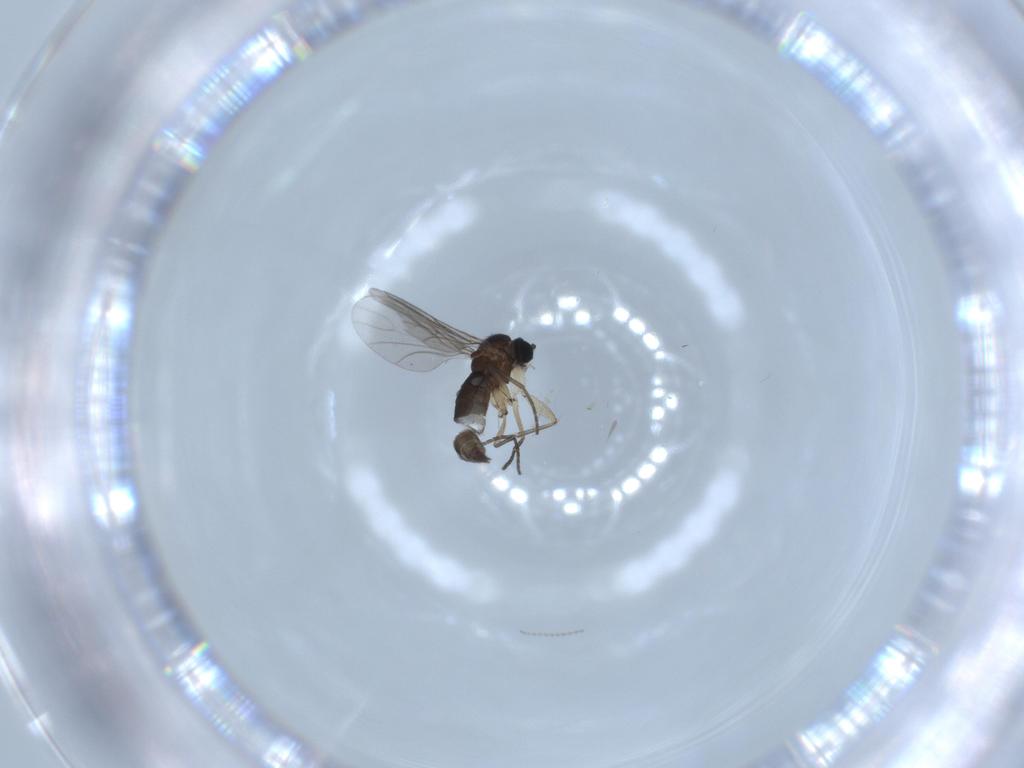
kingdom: Animalia
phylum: Arthropoda
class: Insecta
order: Diptera
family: Sciaridae
